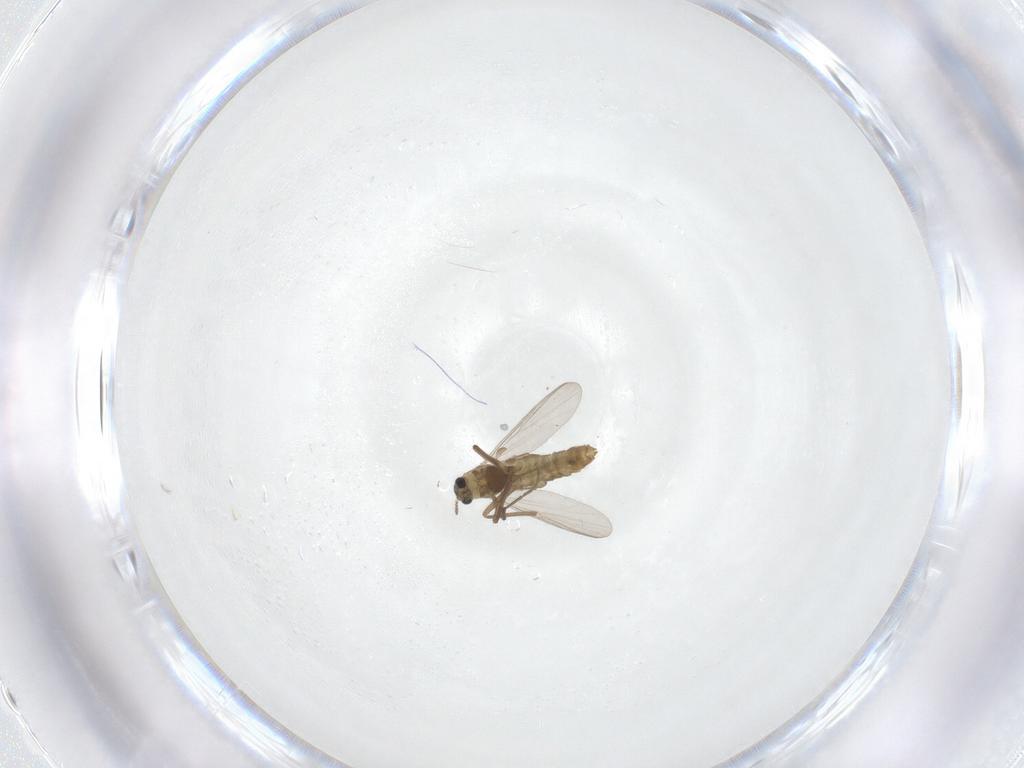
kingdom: Animalia
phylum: Arthropoda
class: Insecta
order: Diptera
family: Chironomidae
